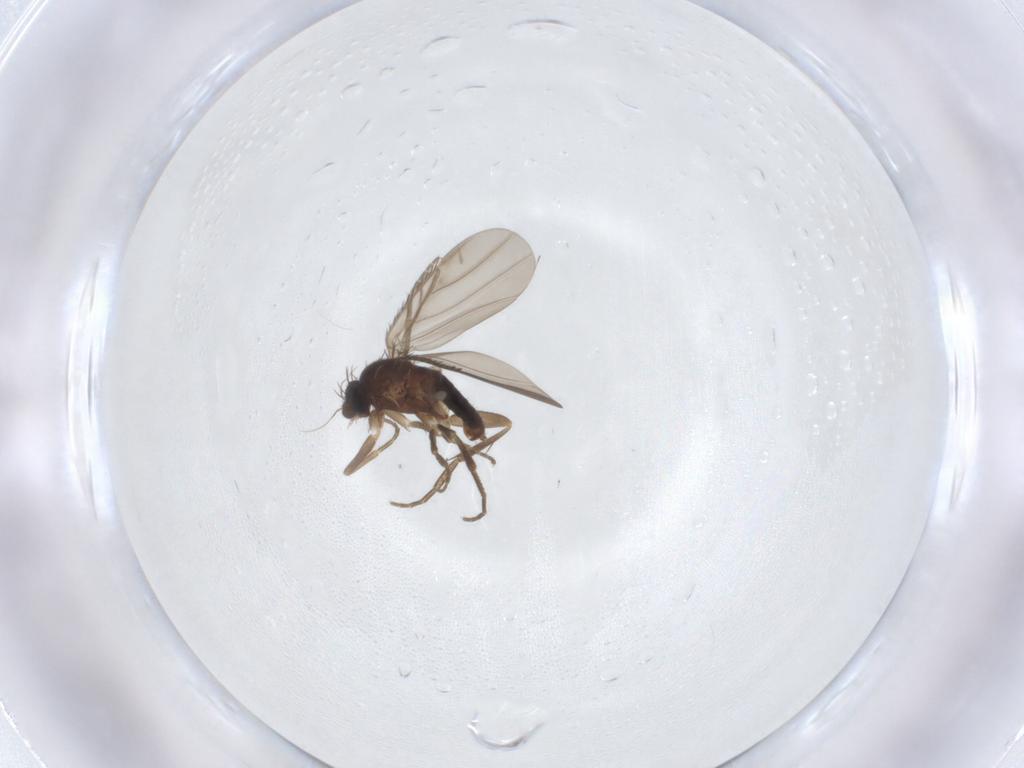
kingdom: Animalia
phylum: Arthropoda
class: Insecta
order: Diptera
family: Phoridae
